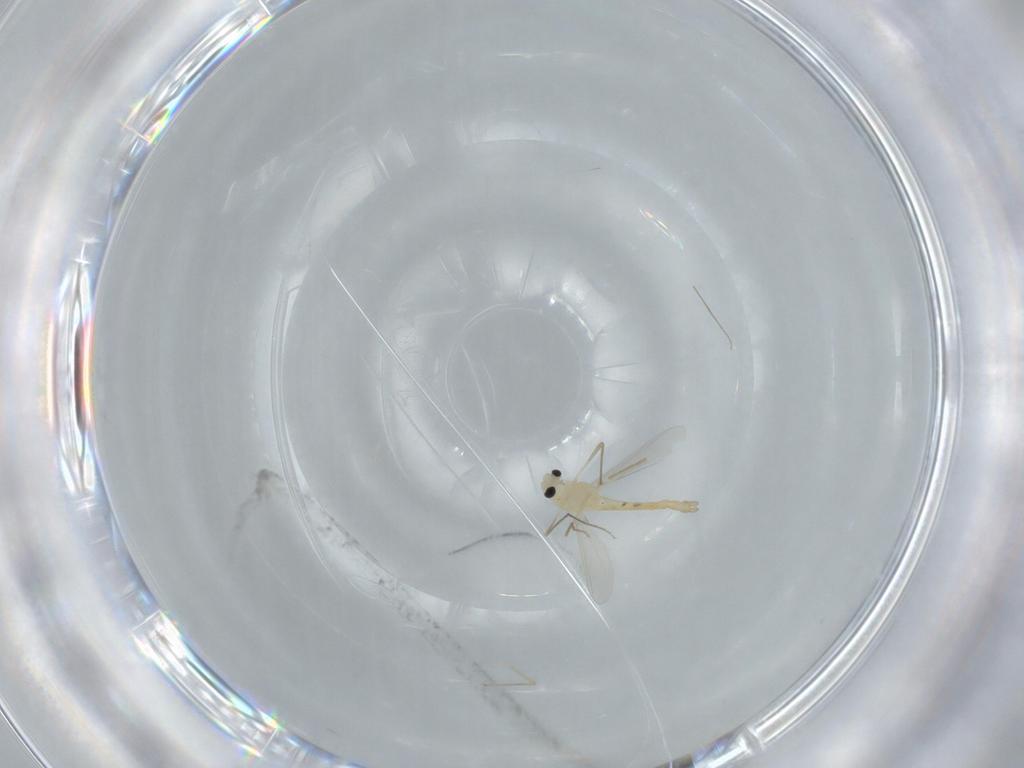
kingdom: Animalia
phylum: Arthropoda
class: Insecta
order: Diptera
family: Chironomidae
